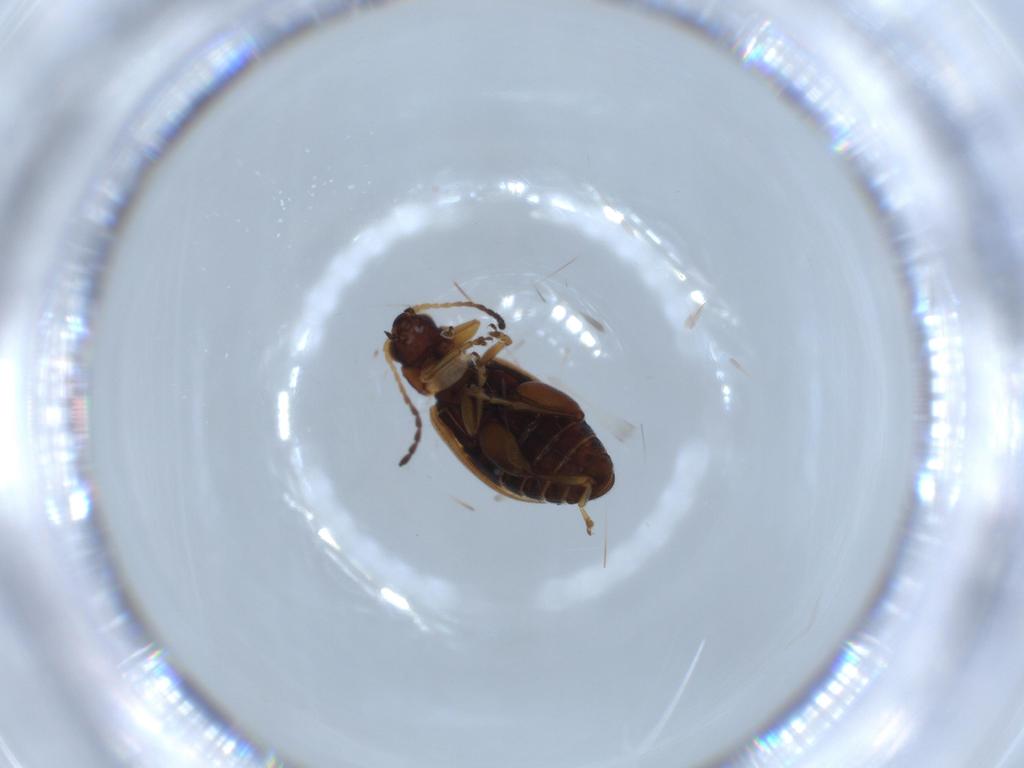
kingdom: Animalia
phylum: Arthropoda
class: Insecta
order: Coleoptera
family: Chrysomelidae
